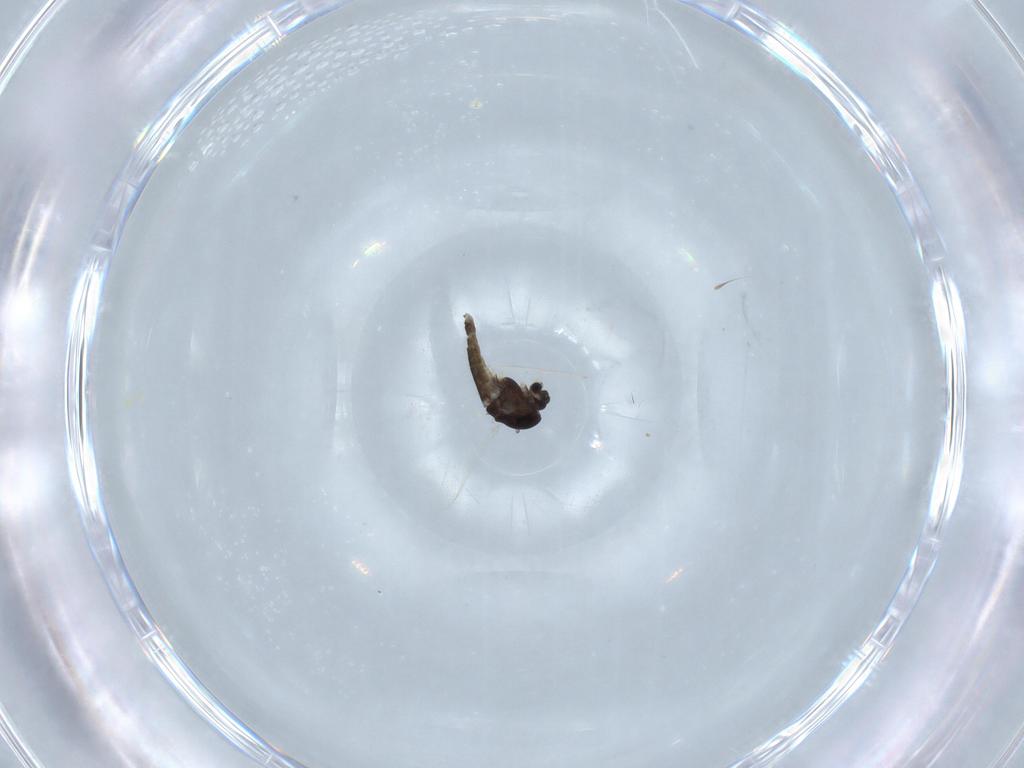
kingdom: Animalia
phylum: Arthropoda
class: Insecta
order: Diptera
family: Chironomidae
